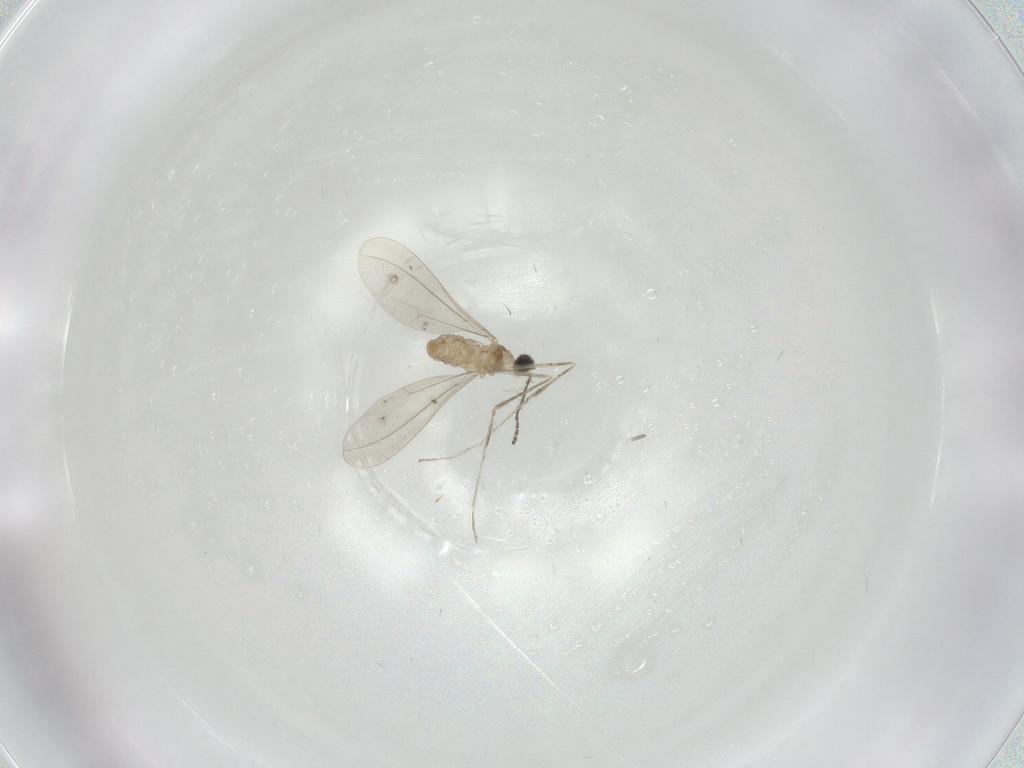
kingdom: Animalia
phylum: Arthropoda
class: Insecta
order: Diptera
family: Cecidomyiidae
